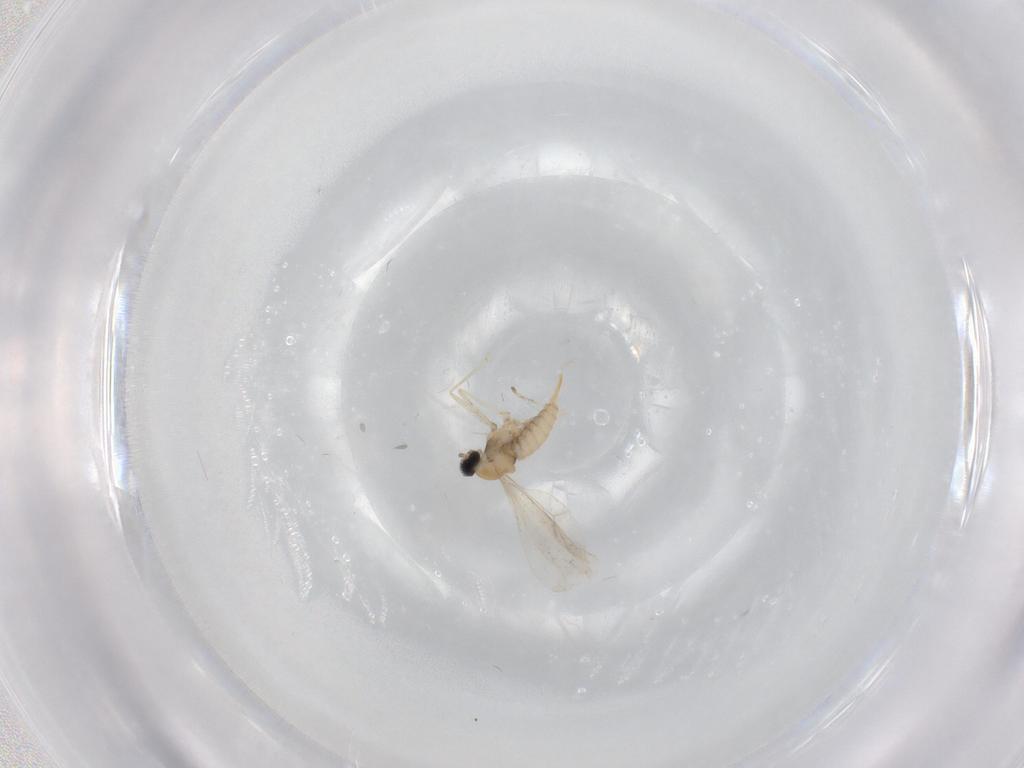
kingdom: Animalia
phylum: Arthropoda
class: Insecta
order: Diptera
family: Cecidomyiidae
